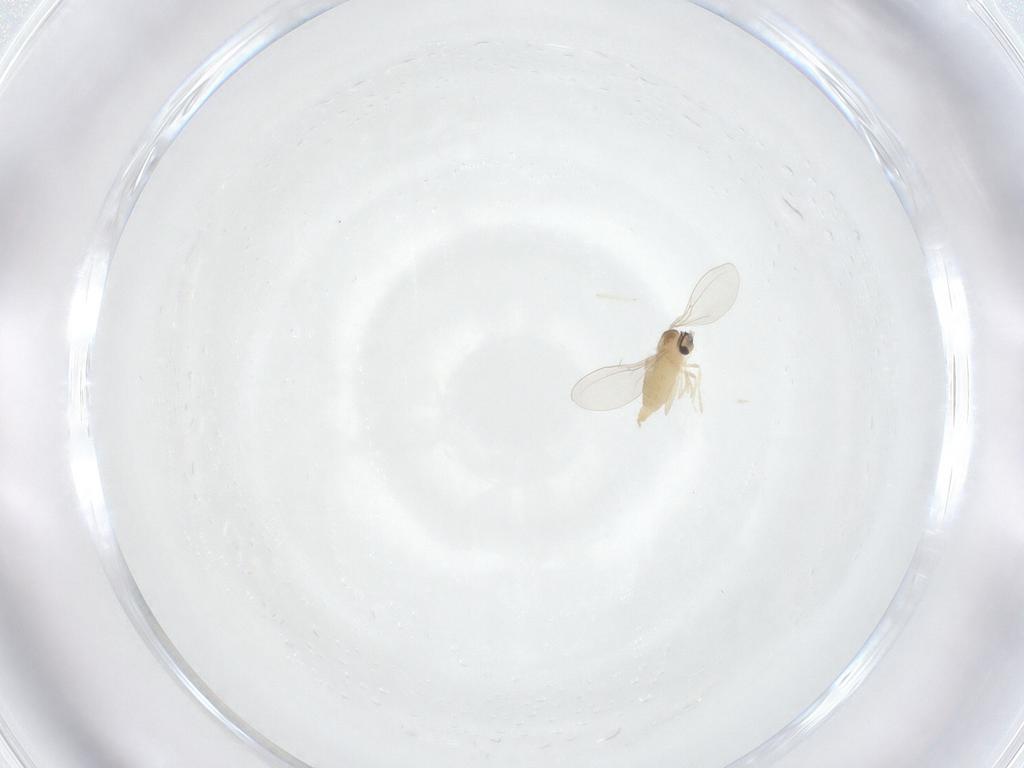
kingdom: Animalia
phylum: Arthropoda
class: Insecta
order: Diptera
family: Cecidomyiidae
